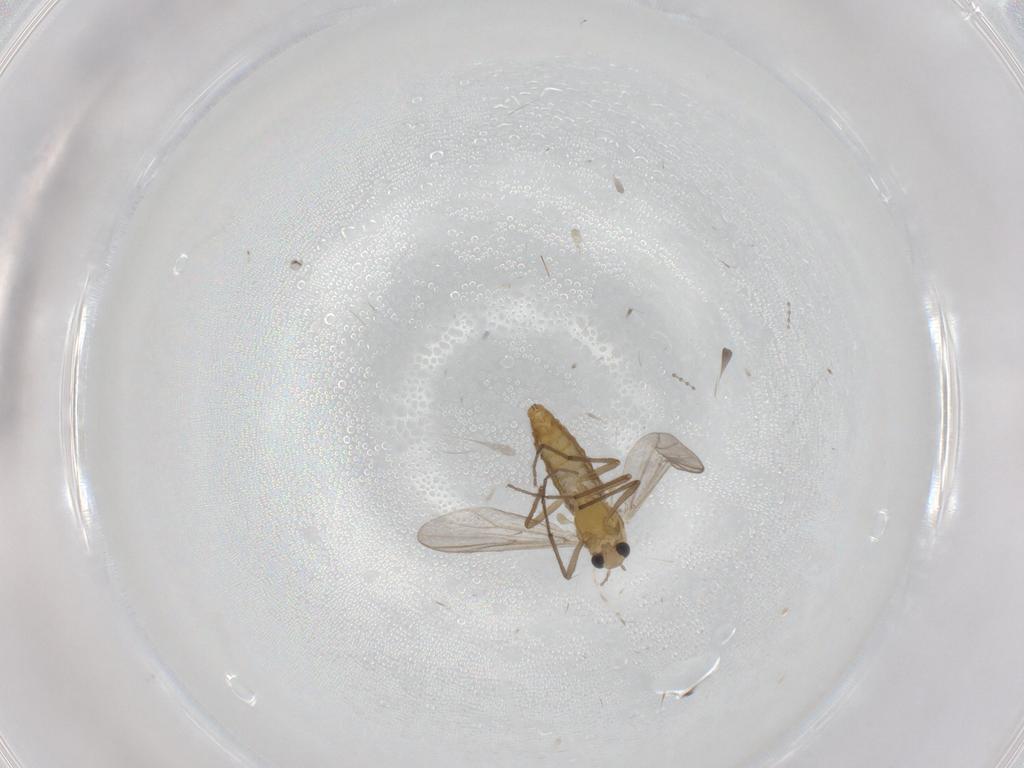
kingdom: Animalia
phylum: Arthropoda
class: Insecta
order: Diptera
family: Chironomidae
